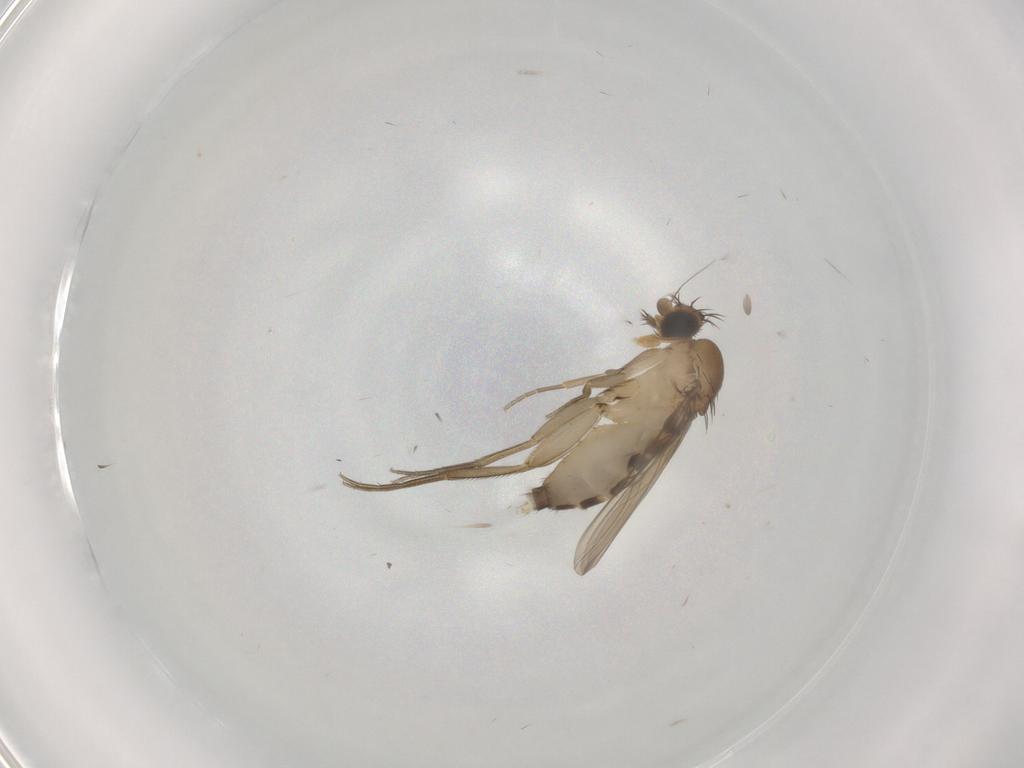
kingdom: Animalia
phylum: Arthropoda
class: Insecta
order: Diptera
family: Phoridae
